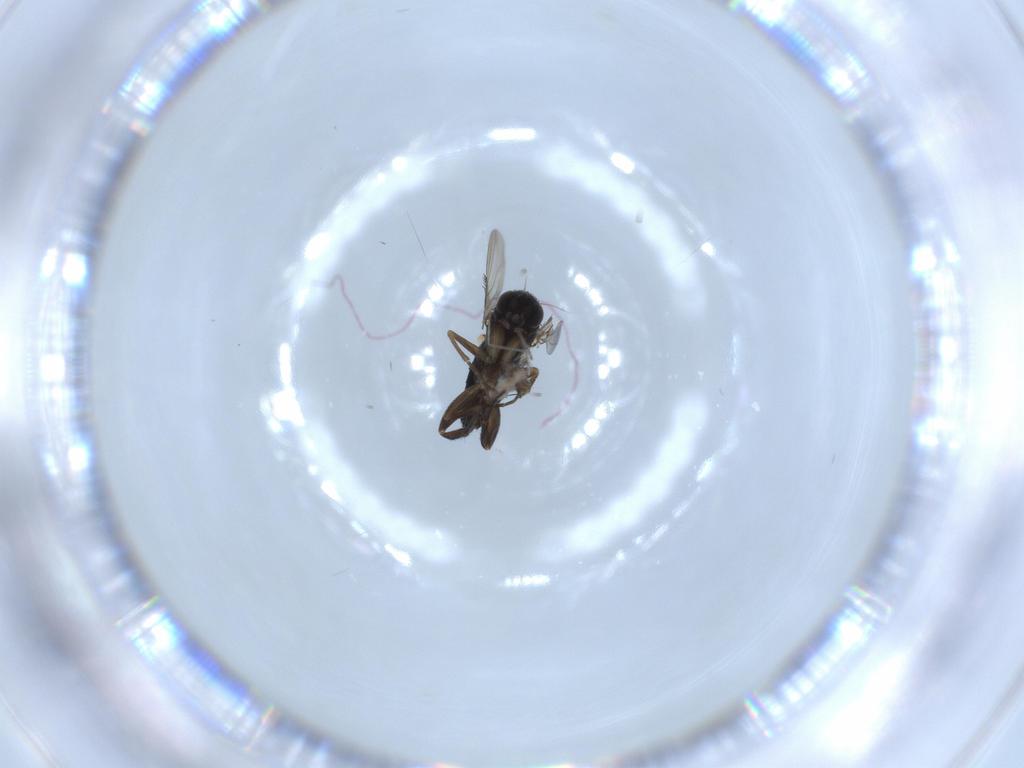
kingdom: Animalia
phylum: Arthropoda
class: Insecta
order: Diptera
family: Cecidomyiidae
